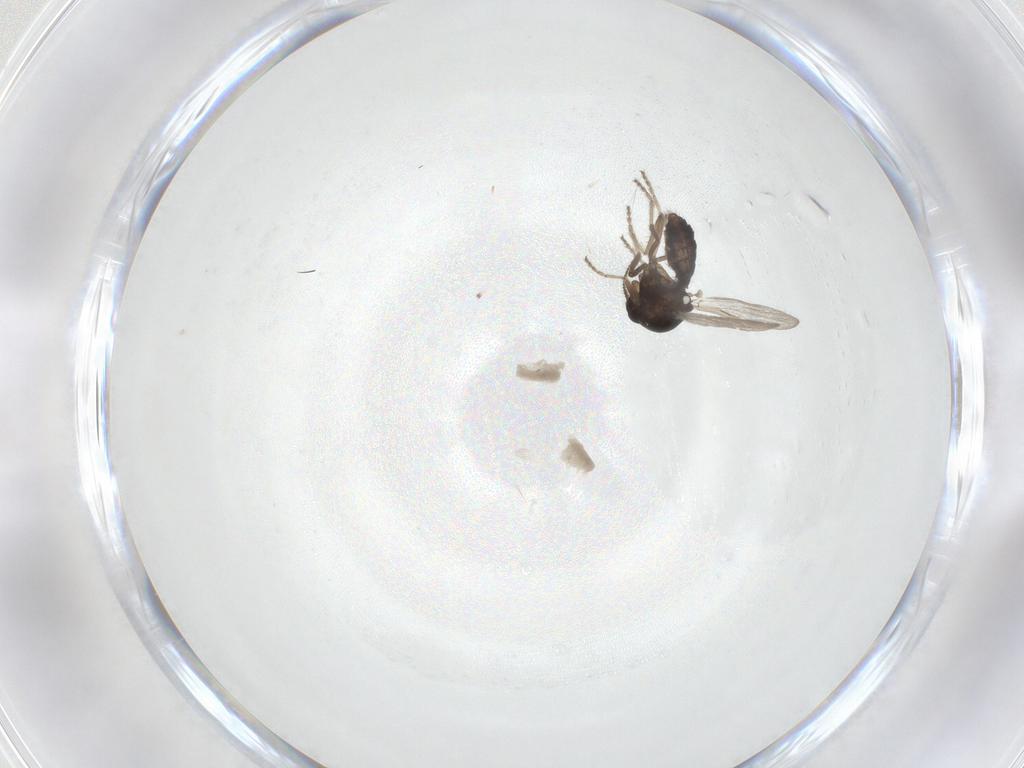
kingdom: Animalia
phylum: Arthropoda
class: Insecta
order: Diptera
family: Ceratopogonidae
